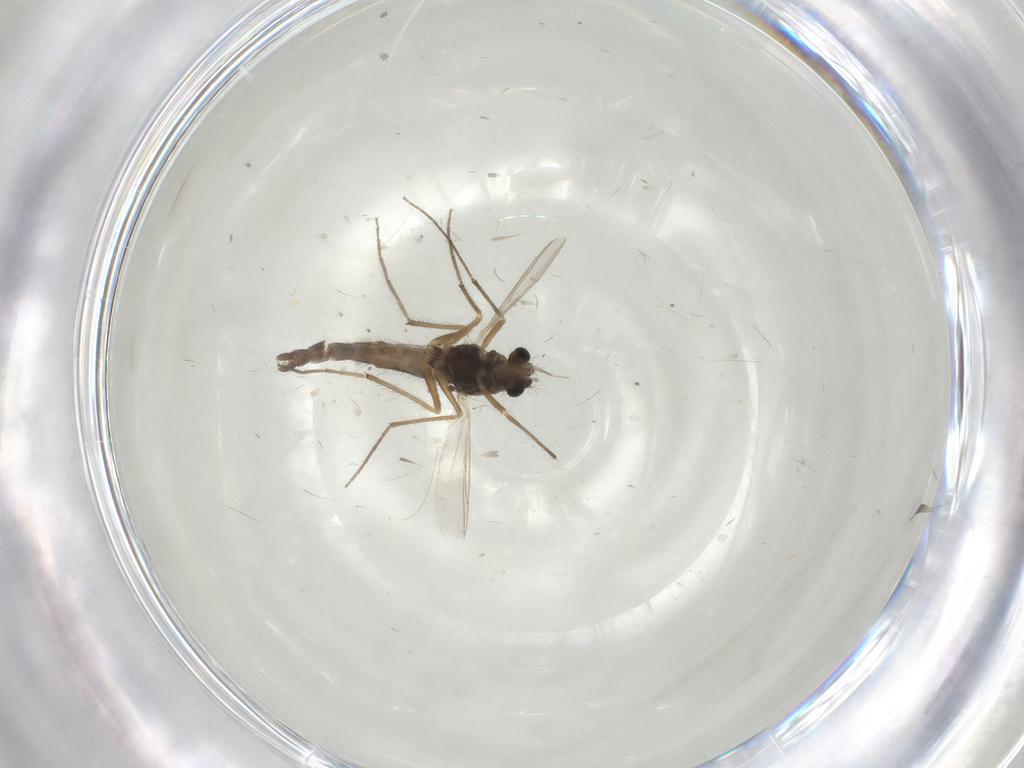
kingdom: Animalia
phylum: Arthropoda
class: Insecta
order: Diptera
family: Chironomidae
